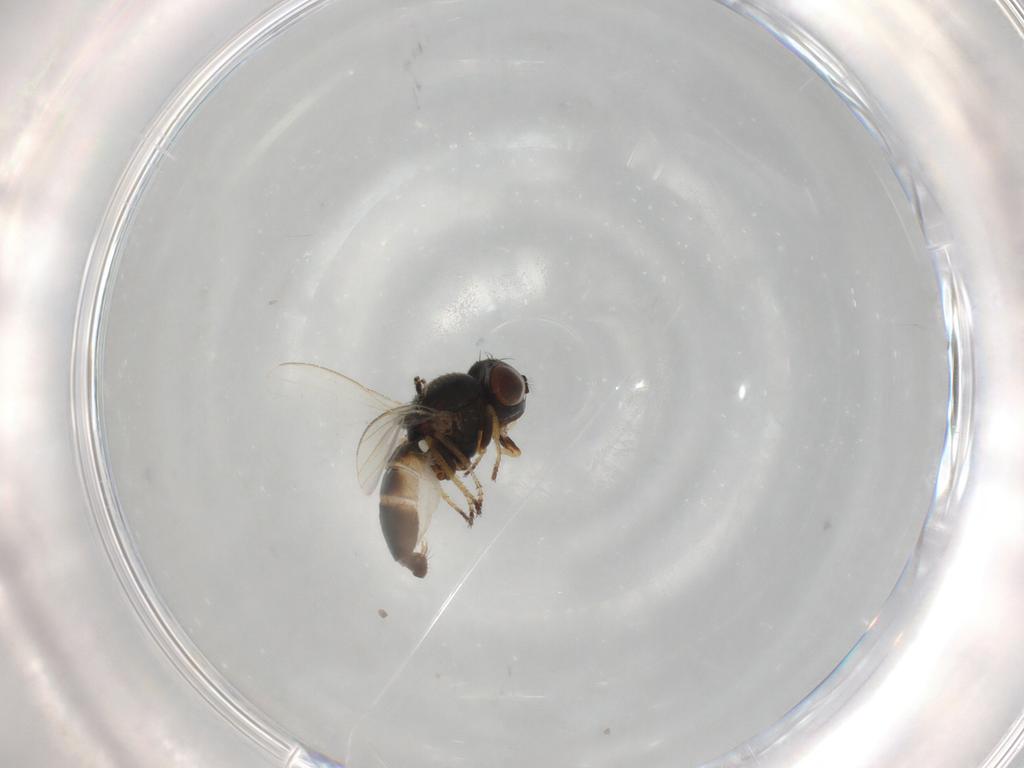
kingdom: Animalia
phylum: Arthropoda
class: Insecta
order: Diptera
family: Ephydridae
